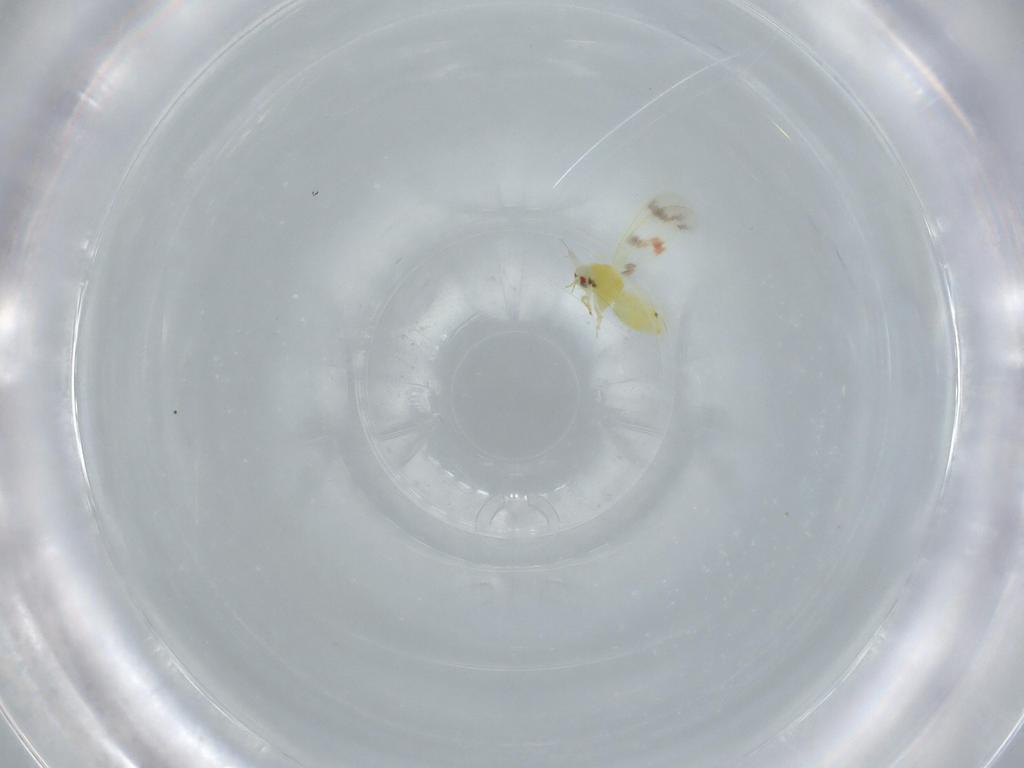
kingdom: Animalia
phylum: Arthropoda
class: Insecta
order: Hemiptera
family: Aleyrodidae
